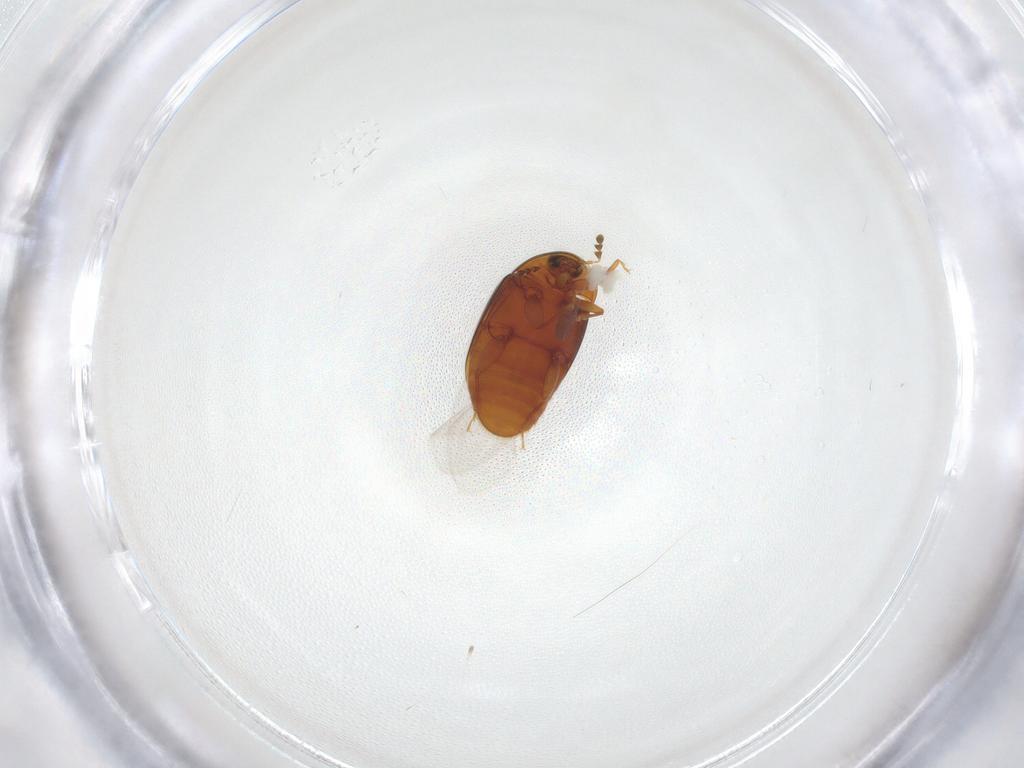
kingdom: Animalia
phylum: Arthropoda
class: Insecta
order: Coleoptera
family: Corylophidae
